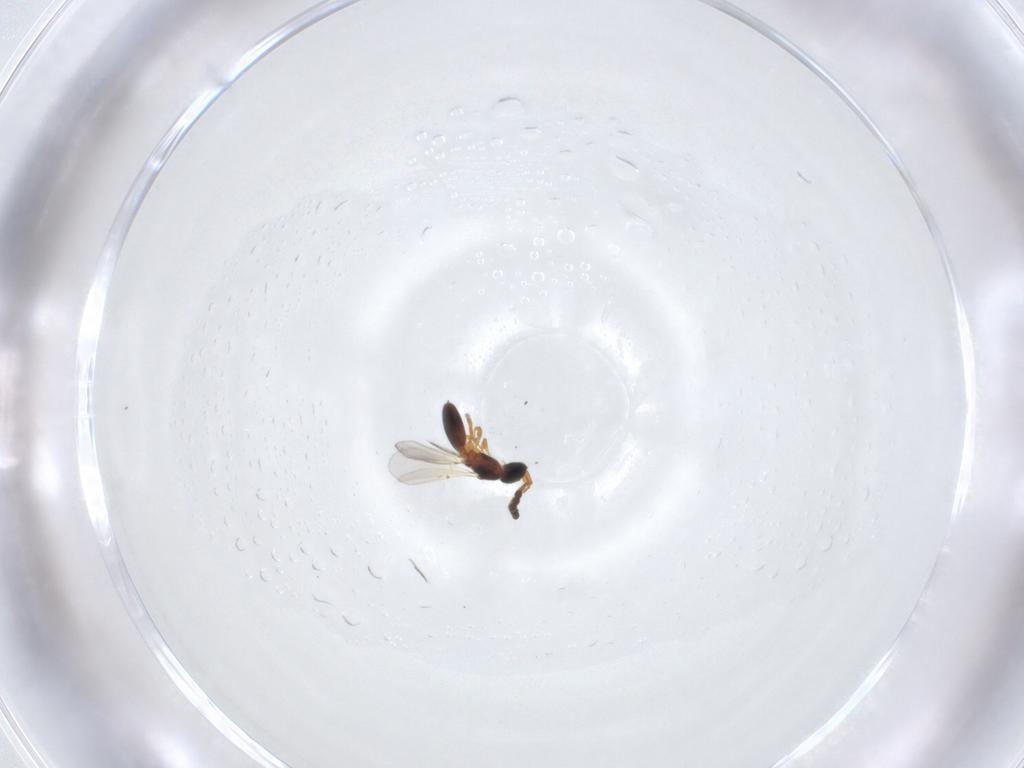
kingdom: Animalia
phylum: Arthropoda
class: Insecta
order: Hymenoptera
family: Diapriidae
